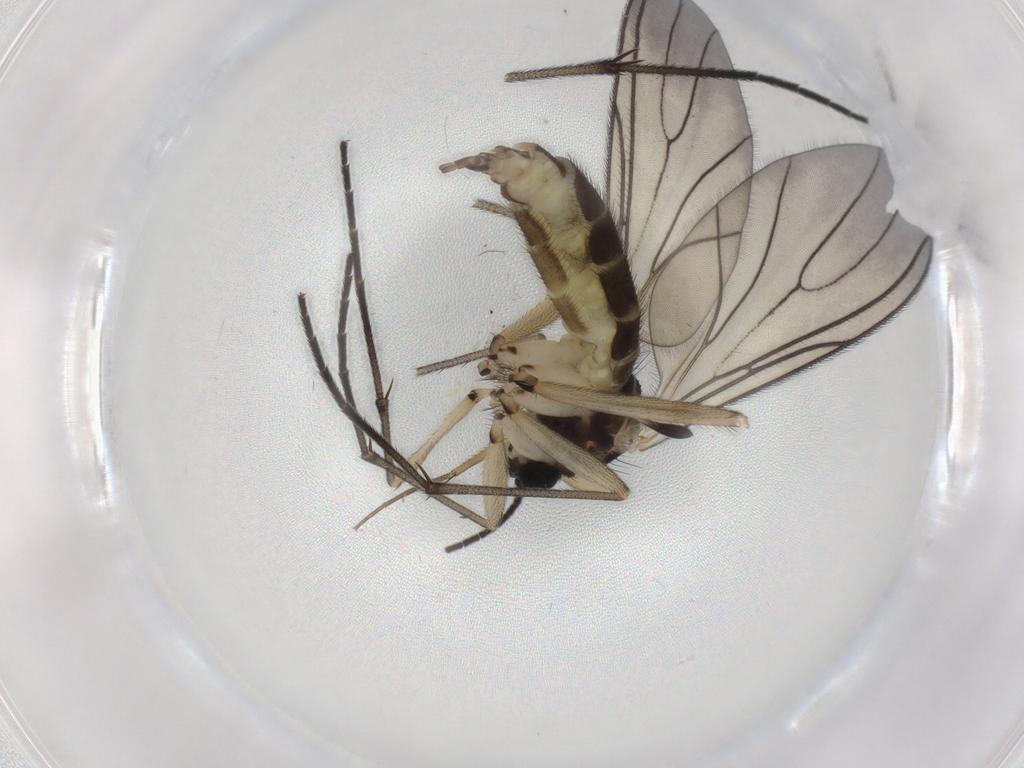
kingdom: Animalia
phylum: Arthropoda
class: Insecta
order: Diptera
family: Sciaridae
